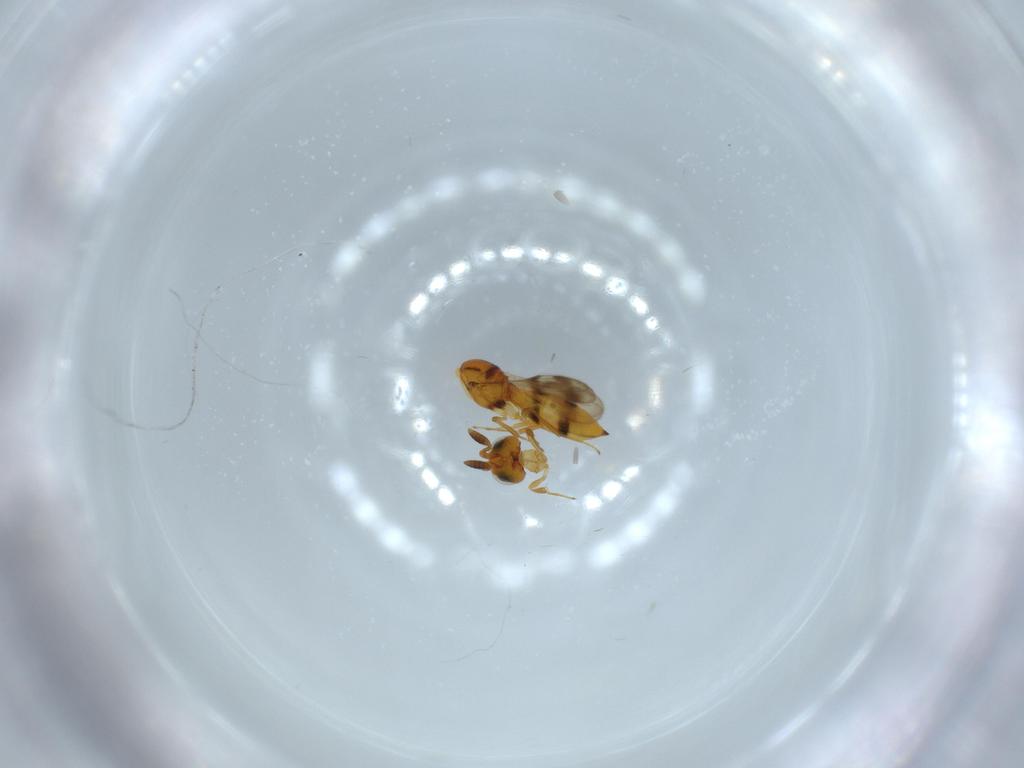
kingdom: Animalia
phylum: Arthropoda
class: Insecta
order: Hymenoptera
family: Scelionidae
